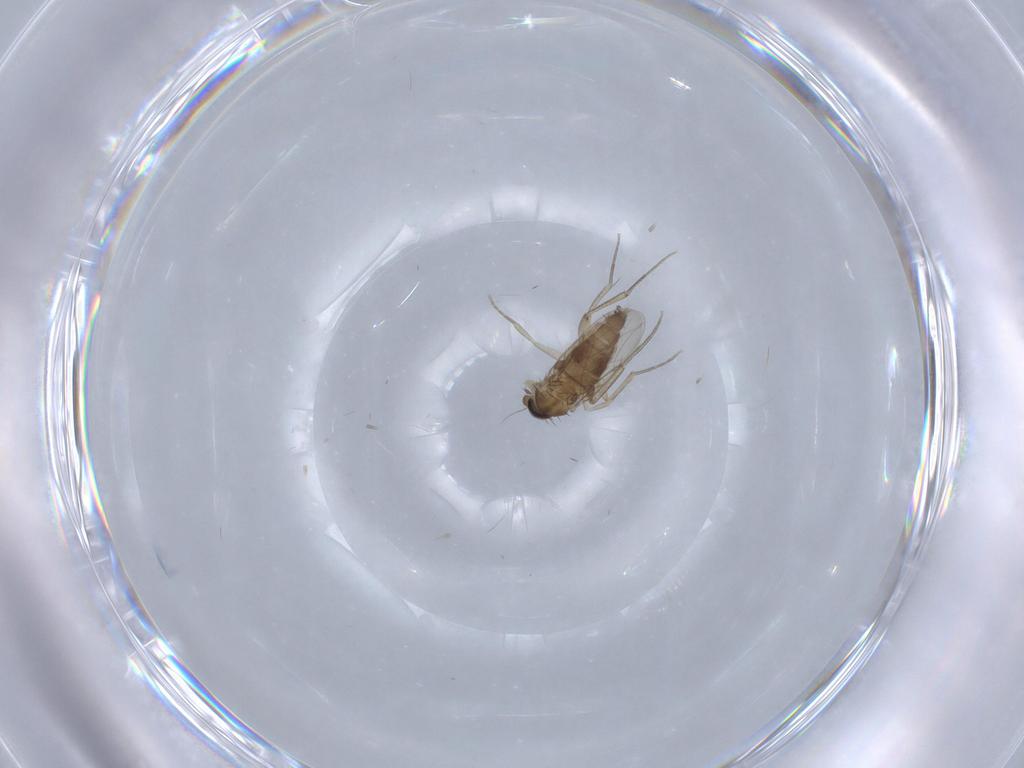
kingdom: Animalia
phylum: Arthropoda
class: Insecta
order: Diptera
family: Phoridae
